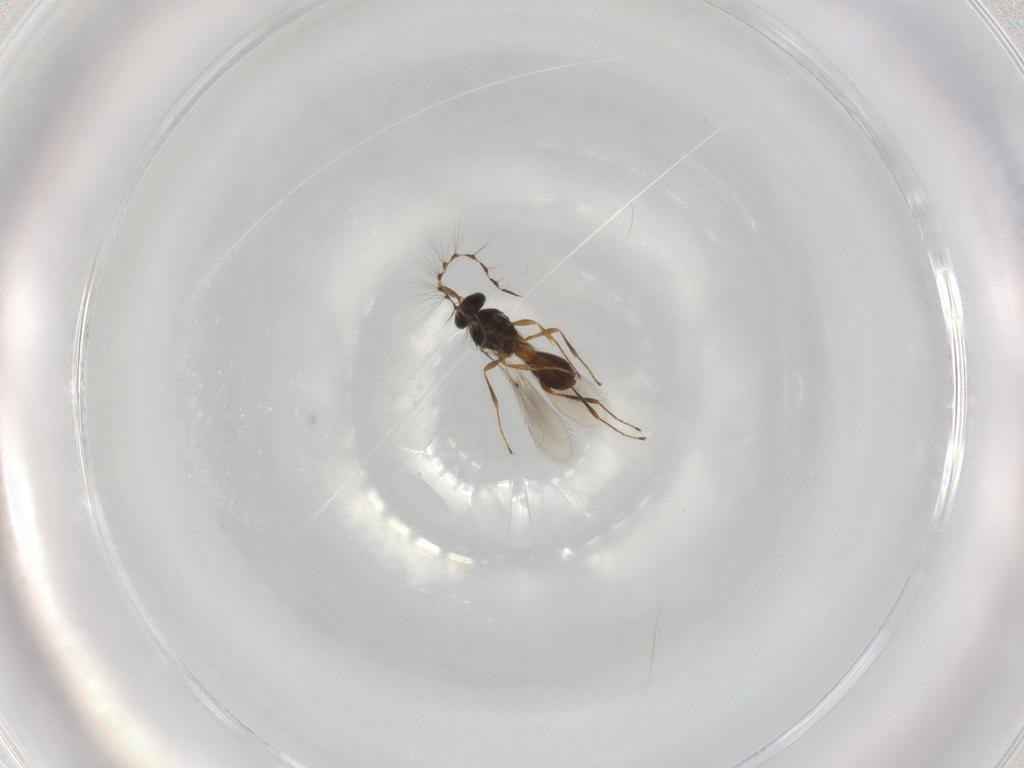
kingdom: Animalia
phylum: Arthropoda
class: Insecta
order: Hymenoptera
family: Platygastridae
